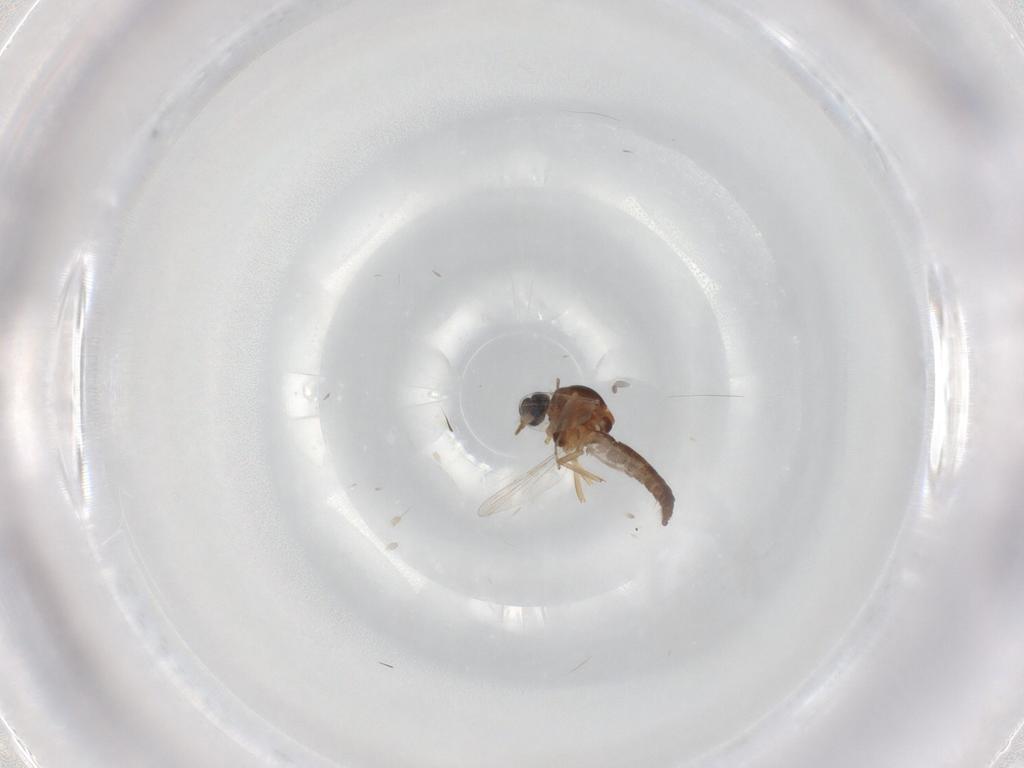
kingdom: Animalia
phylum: Arthropoda
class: Insecta
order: Diptera
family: Ceratopogonidae
